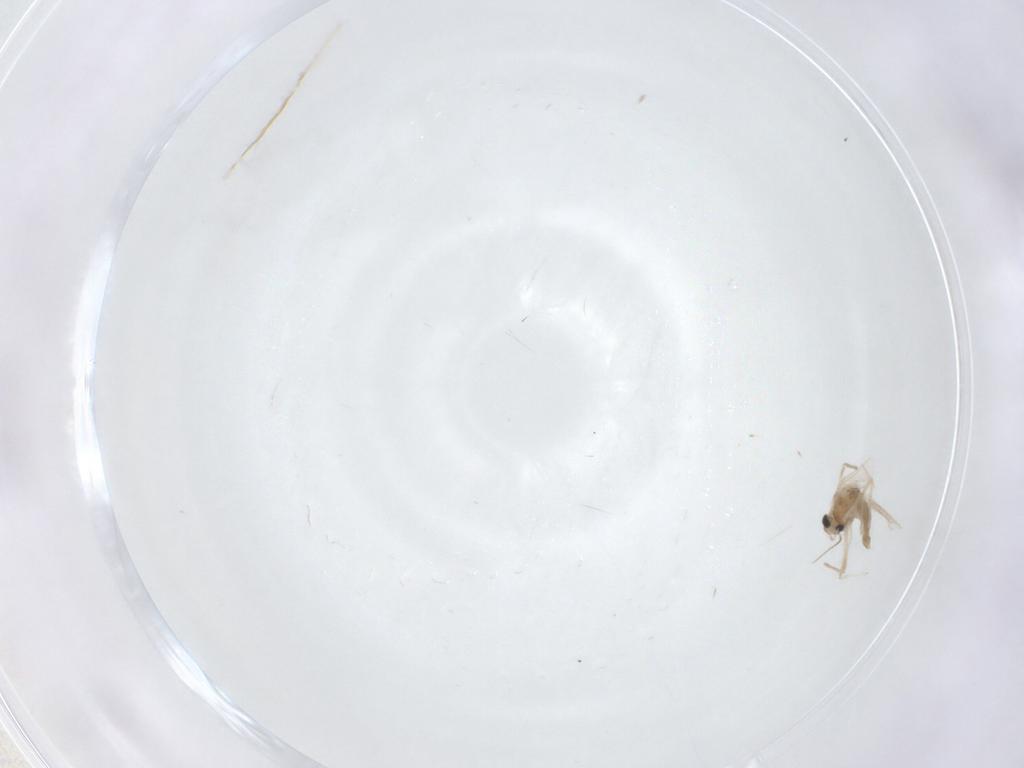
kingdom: Animalia
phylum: Arthropoda
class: Insecta
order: Diptera
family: Chironomidae
